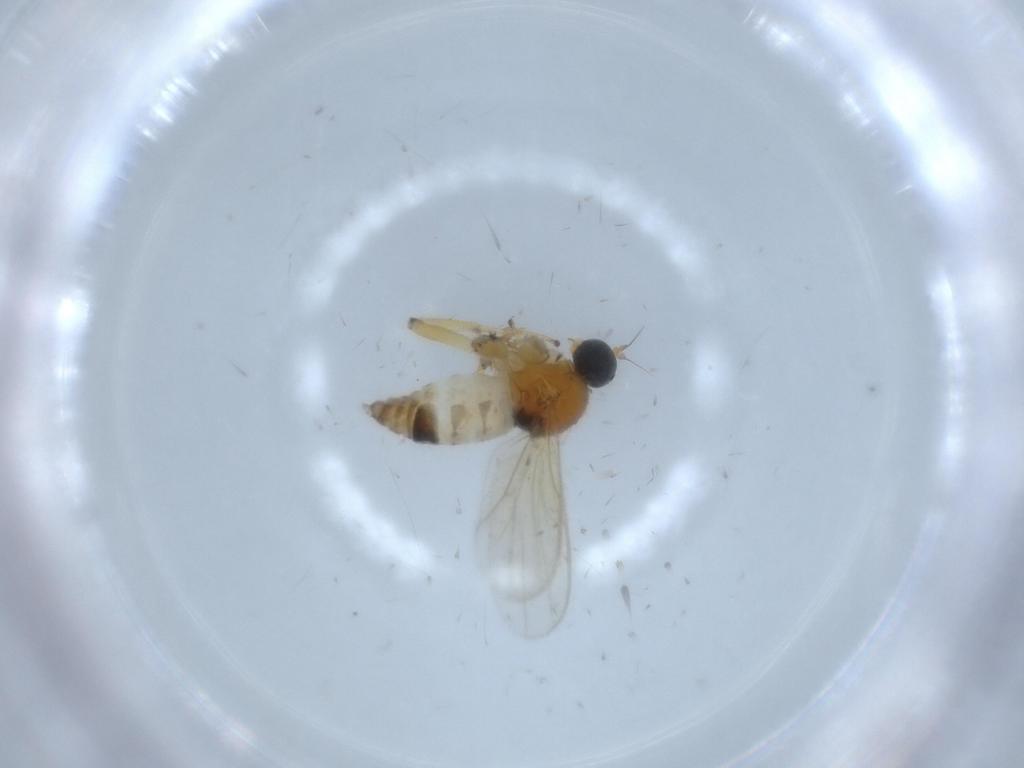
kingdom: Animalia
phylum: Arthropoda
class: Insecta
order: Diptera
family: Hybotidae
